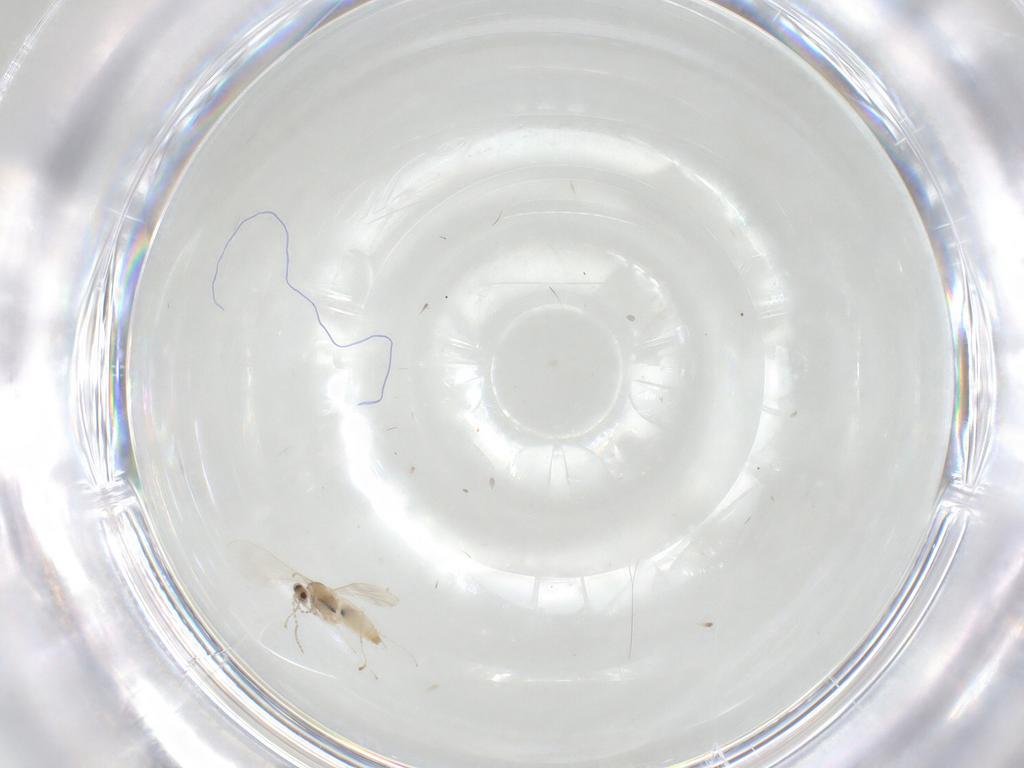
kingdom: Animalia
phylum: Arthropoda
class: Insecta
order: Diptera
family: Cecidomyiidae
